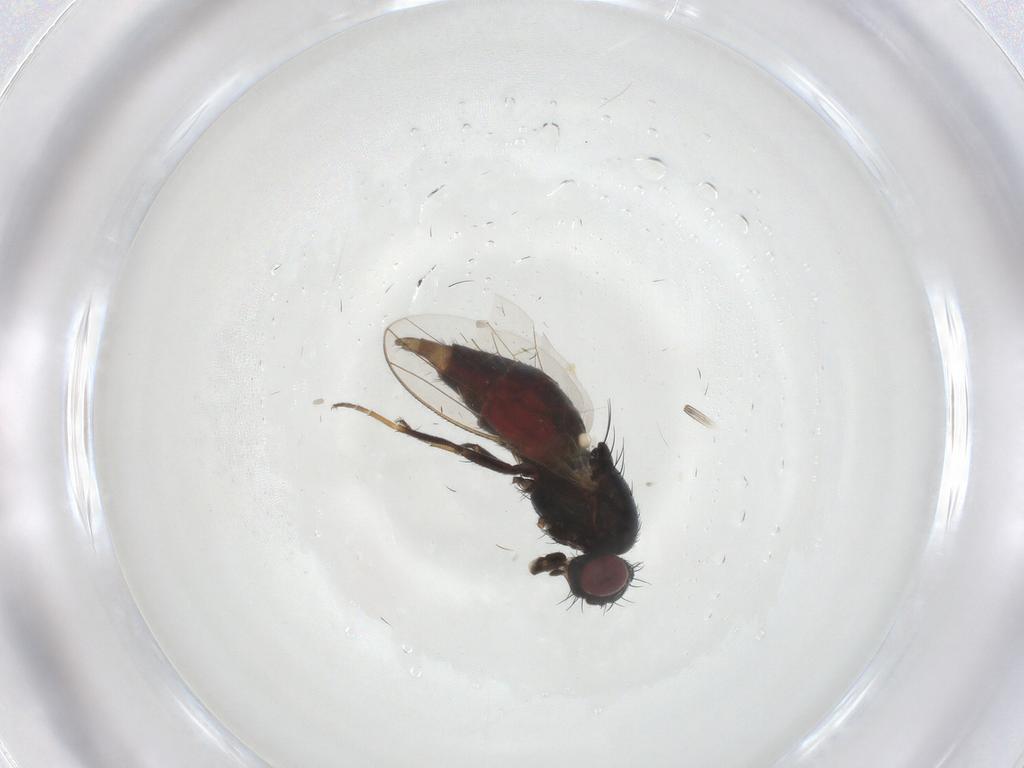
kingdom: Animalia
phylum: Arthropoda
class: Insecta
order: Diptera
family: Carnidae
